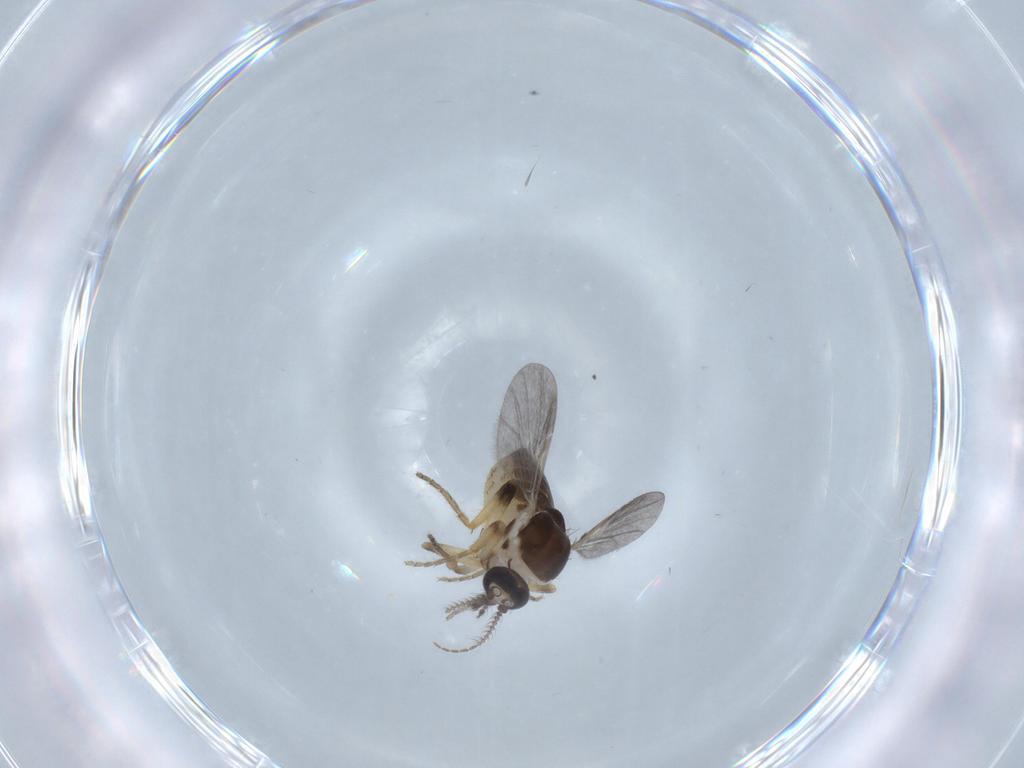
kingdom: Animalia
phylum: Arthropoda
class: Insecta
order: Diptera
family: Ceratopogonidae
